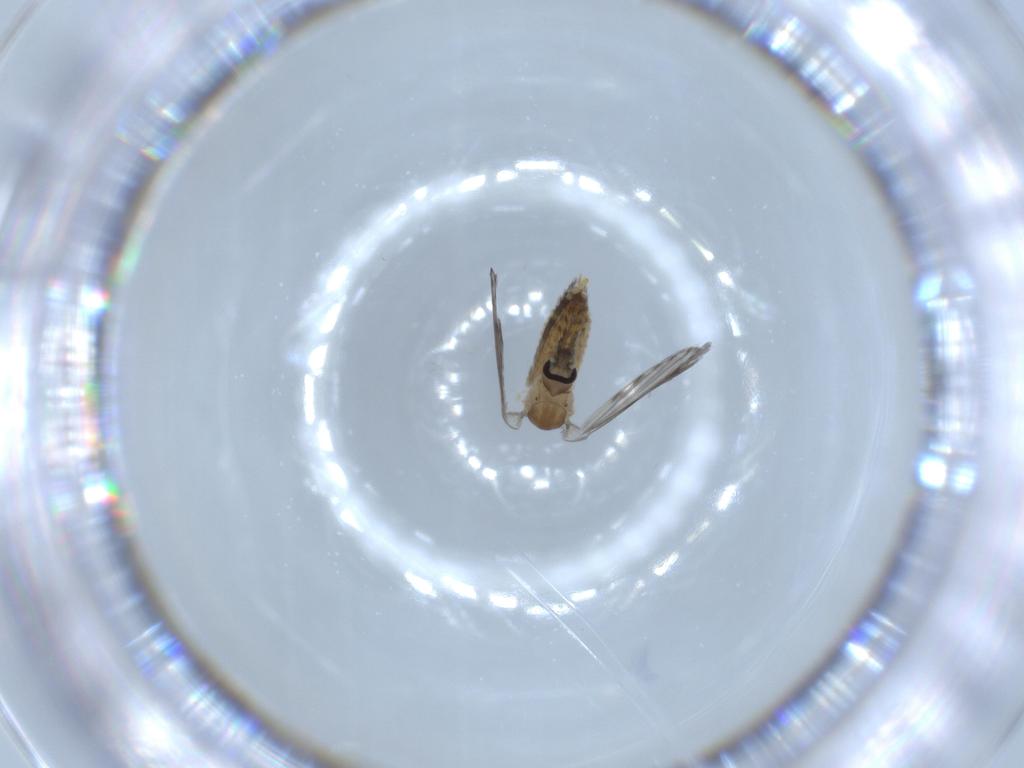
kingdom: Animalia
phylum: Arthropoda
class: Insecta
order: Diptera
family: Psychodidae
